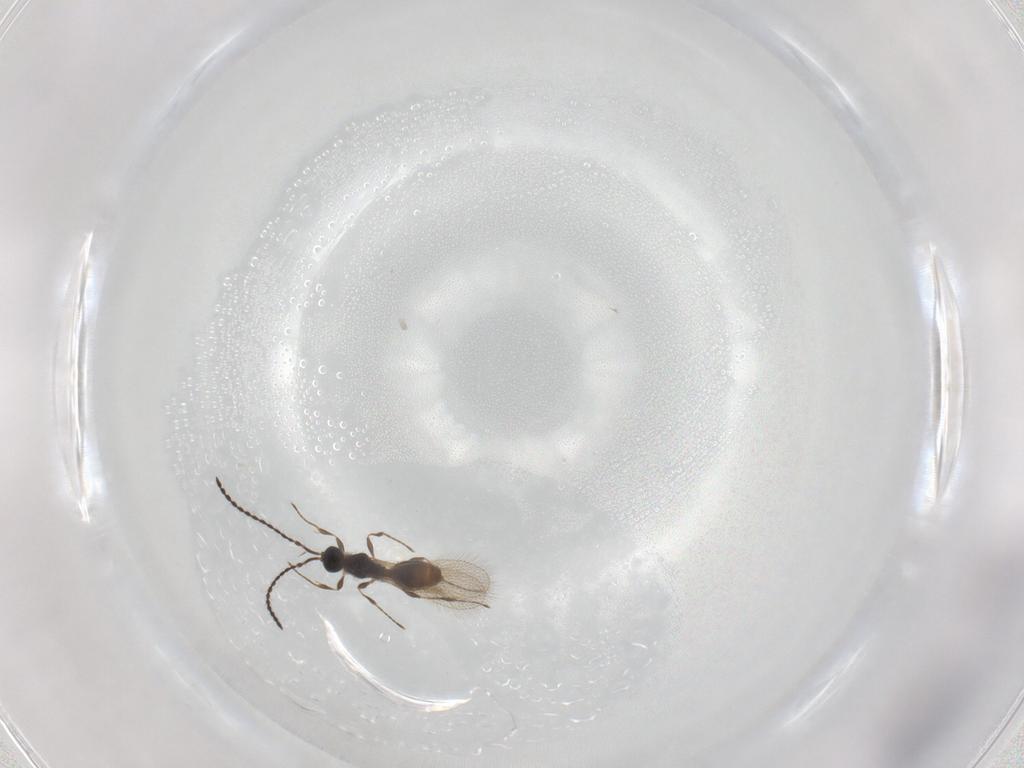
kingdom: Animalia
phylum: Arthropoda
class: Insecta
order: Hymenoptera
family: Diapriidae
